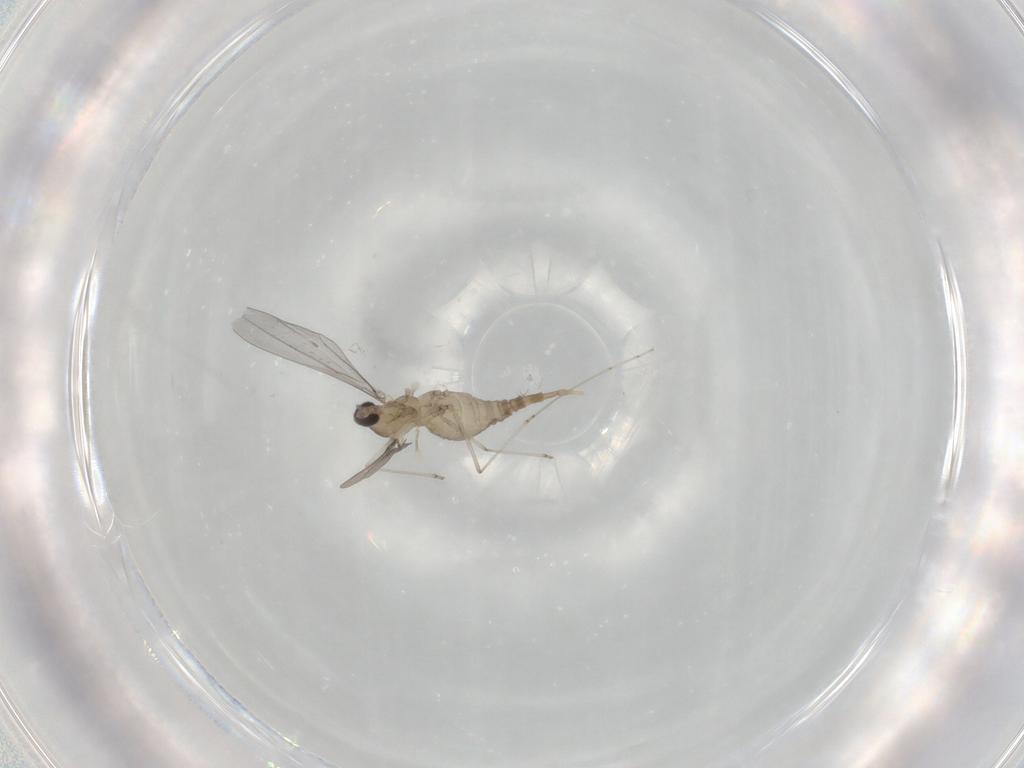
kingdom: Animalia
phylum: Arthropoda
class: Insecta
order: Diptera
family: Cecidomyiidae
